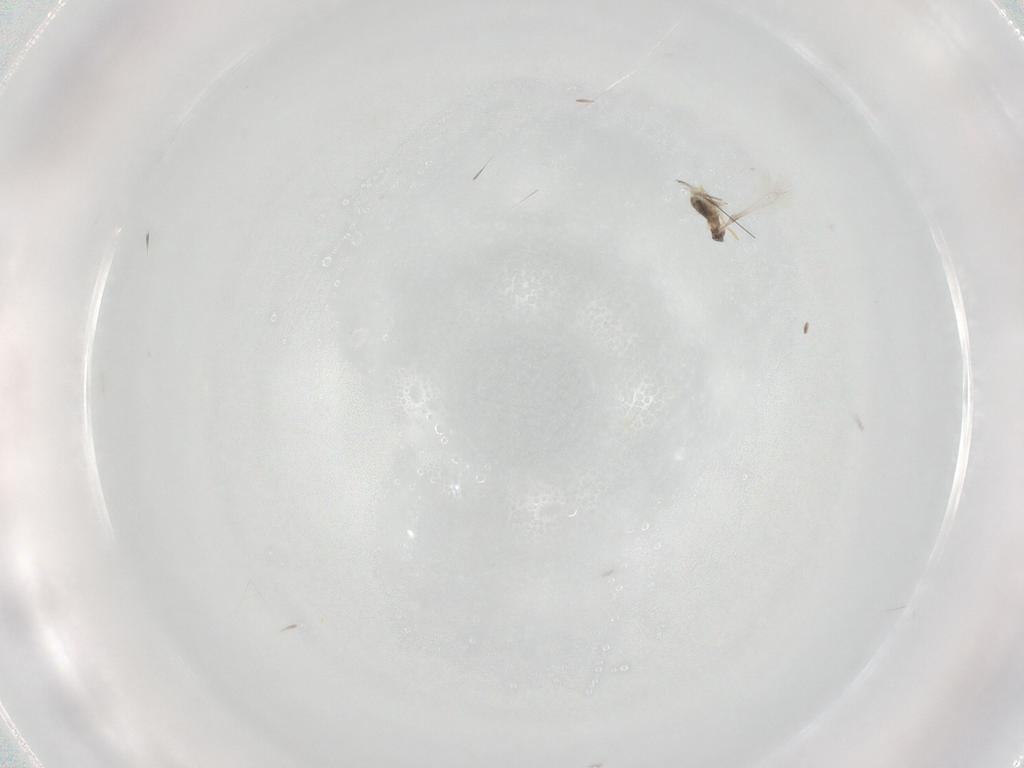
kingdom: Animalia
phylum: Arthropoda
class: Insecta
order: Hymenoptera
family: Mymaridae
